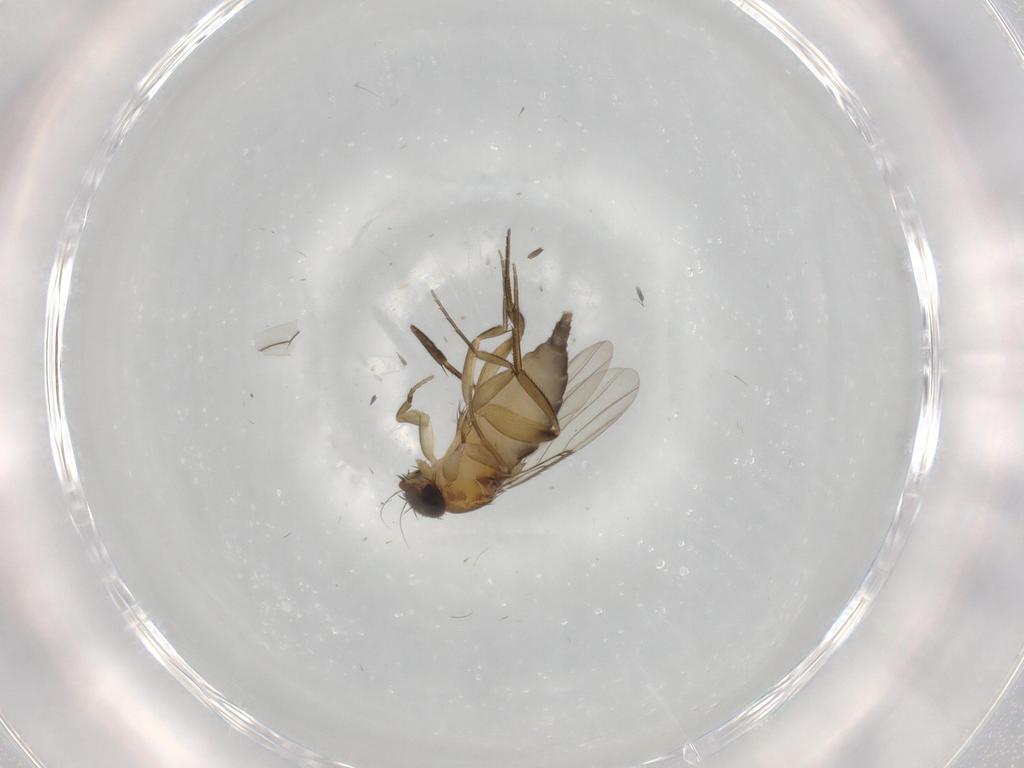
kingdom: Animalia
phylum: Arthropoda
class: Insecta
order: Diptera
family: Phoridae
